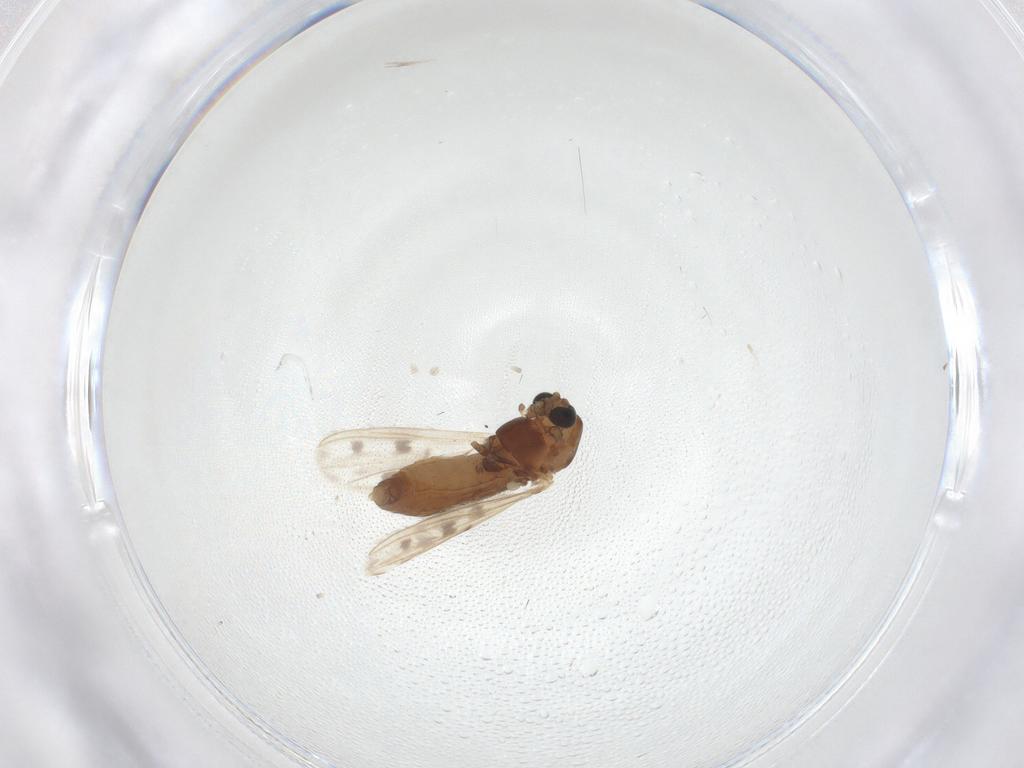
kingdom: Animalia
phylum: Arthropoda
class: Insecta
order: Diptera
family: Chironomidae
